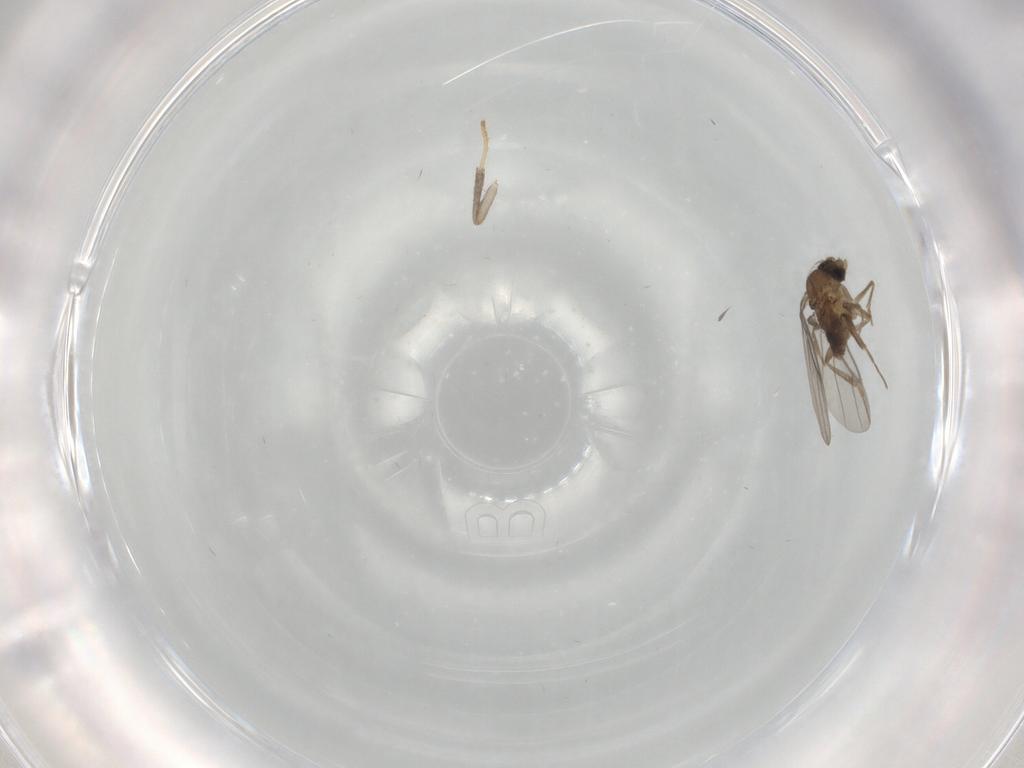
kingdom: Animalia
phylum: Arthropoda
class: Insecta
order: Diptera
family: Psychodidae
